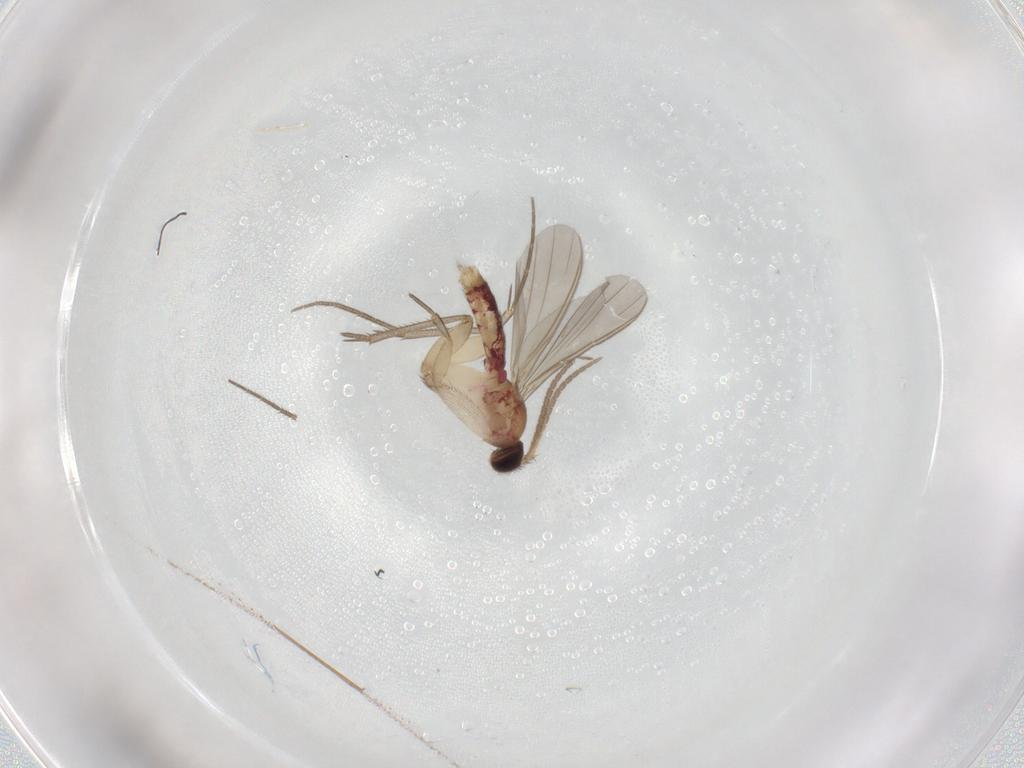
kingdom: Animalia
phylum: Arthropoda
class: Insecta
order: Diptera
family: Mycetophilidae
